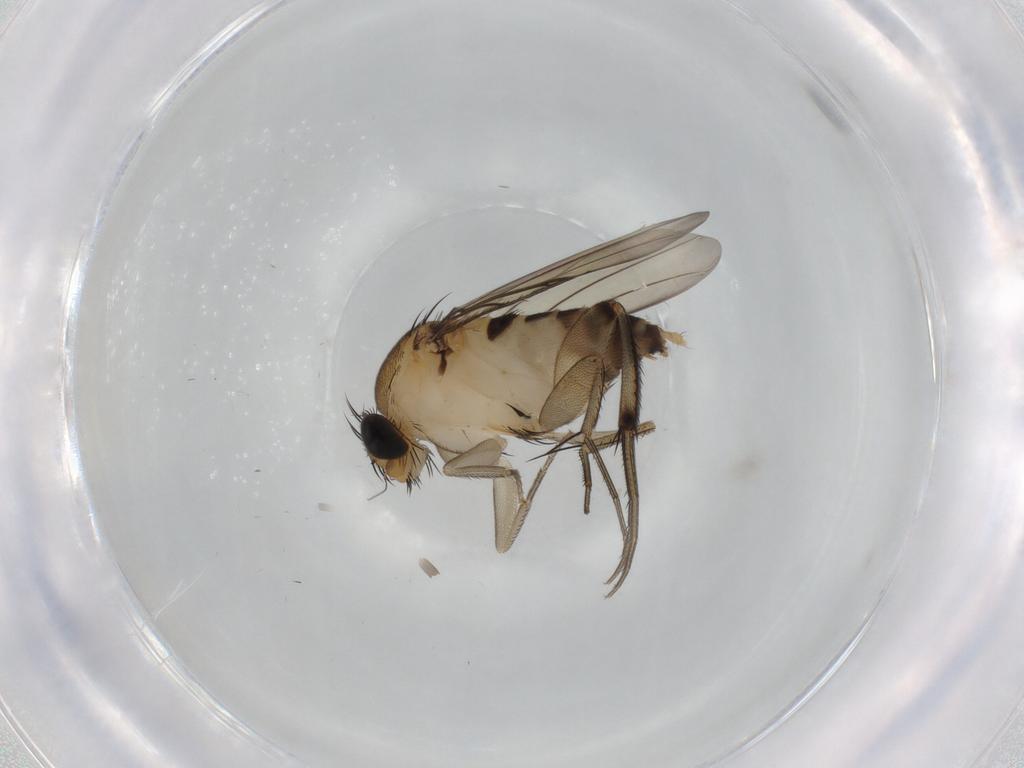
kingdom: Animalia
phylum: Arthropoda
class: Insecta
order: Diptera
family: Phoridae
